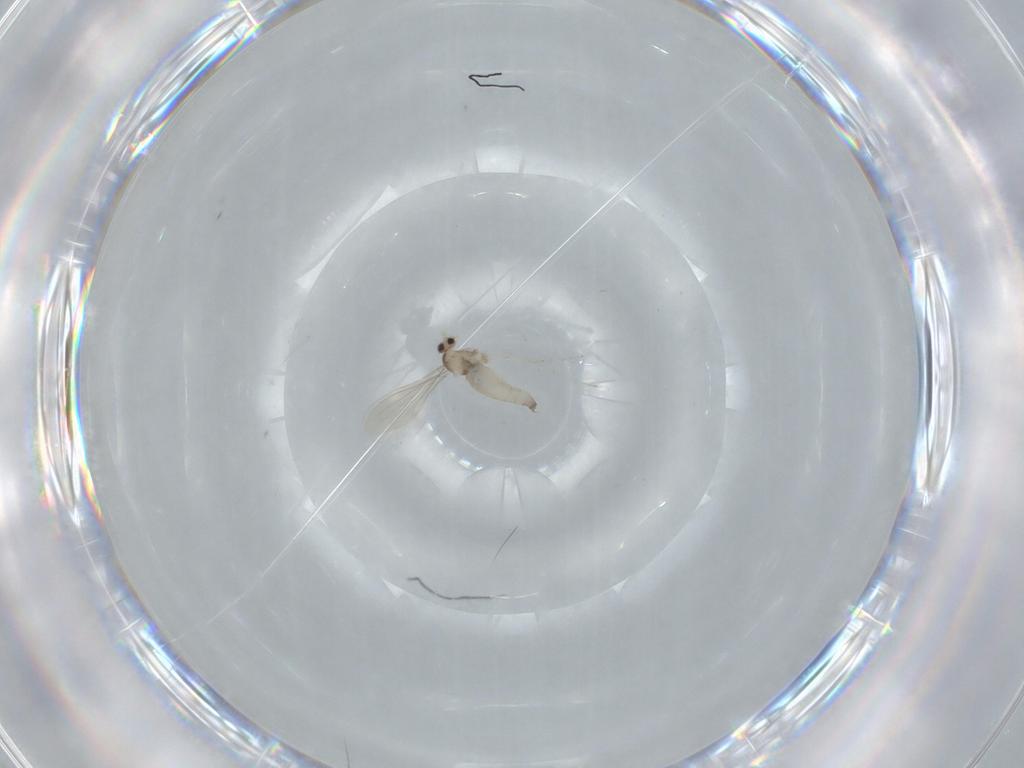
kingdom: Animalia
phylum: Arthropoda
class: Insecta
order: Diptera
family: Cecidomyiidae
